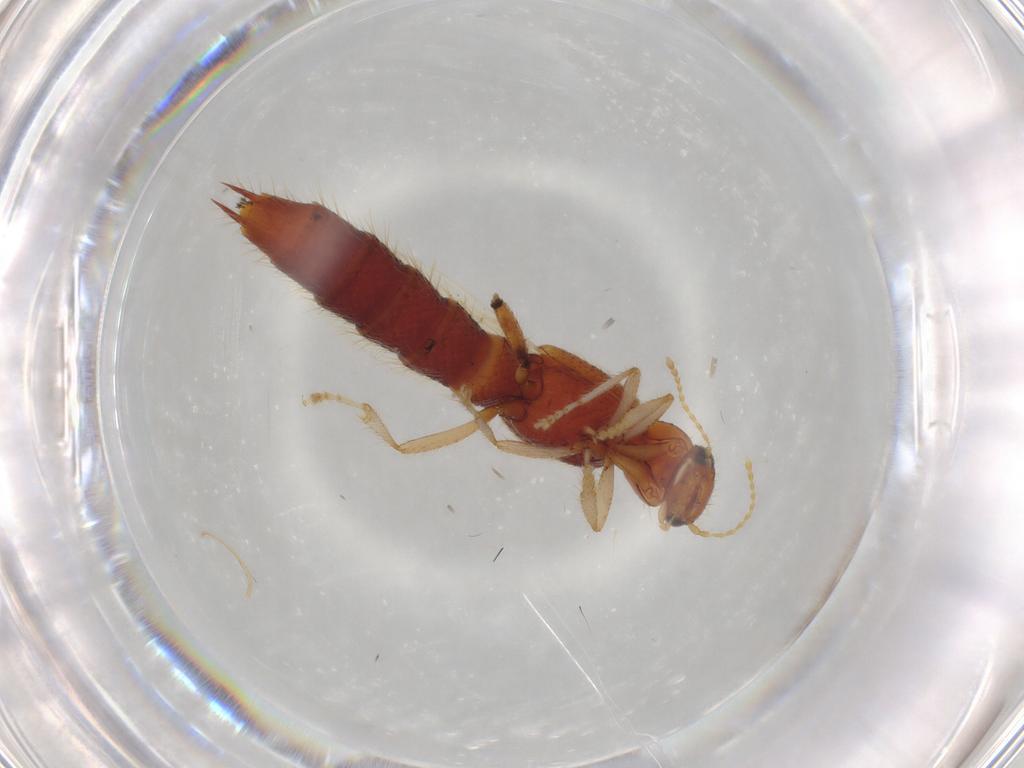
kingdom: Animalia
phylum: Arthropoda
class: Insecta
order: Coleoptera
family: Staphylinidae
